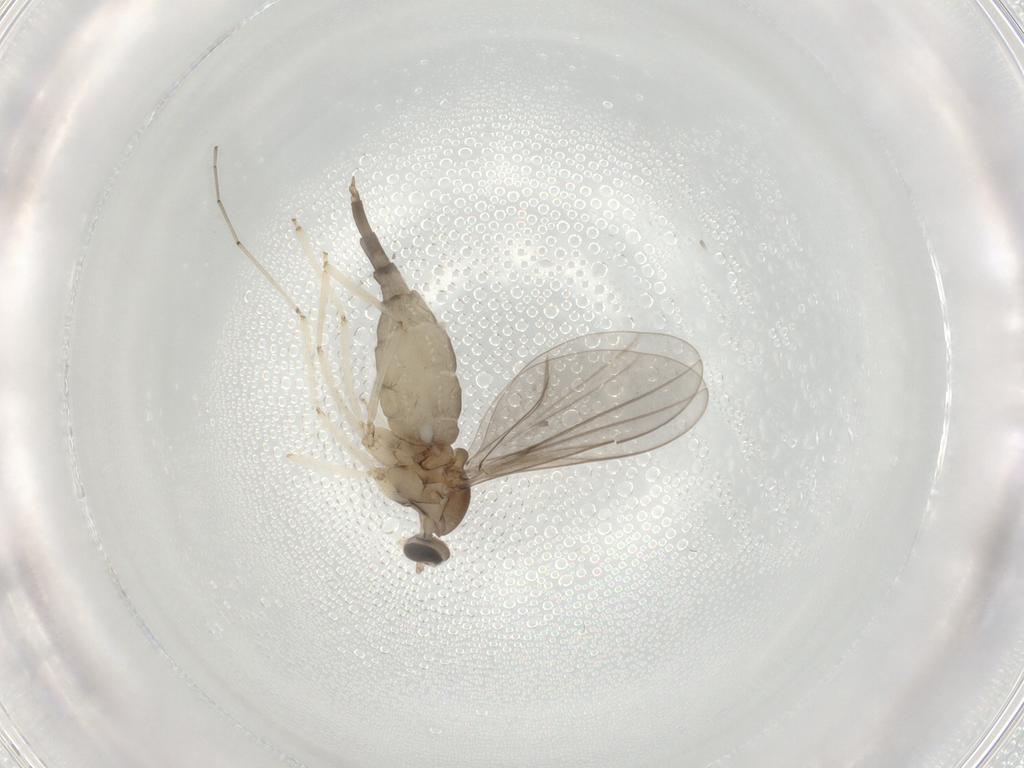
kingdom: Animalia
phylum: Arthropoda
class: Insecta
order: Diptera
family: Cecidomyiidae
